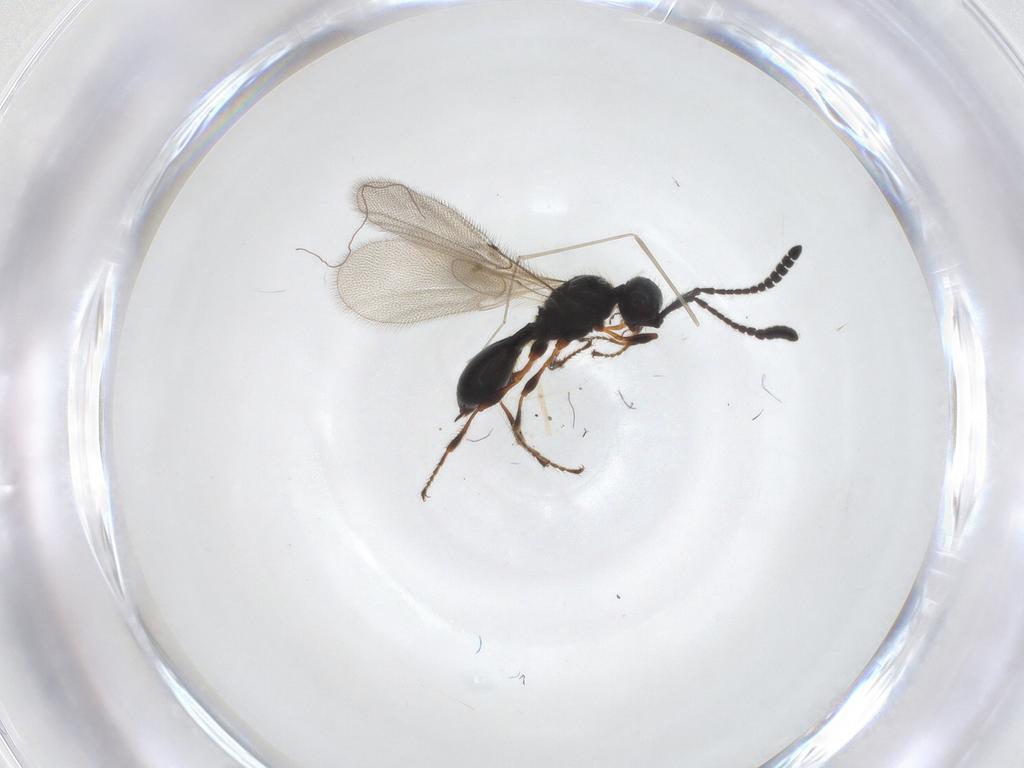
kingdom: Animalia
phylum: Arthropoda
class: Insecta
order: Hymenoptera
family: Diapriidae
